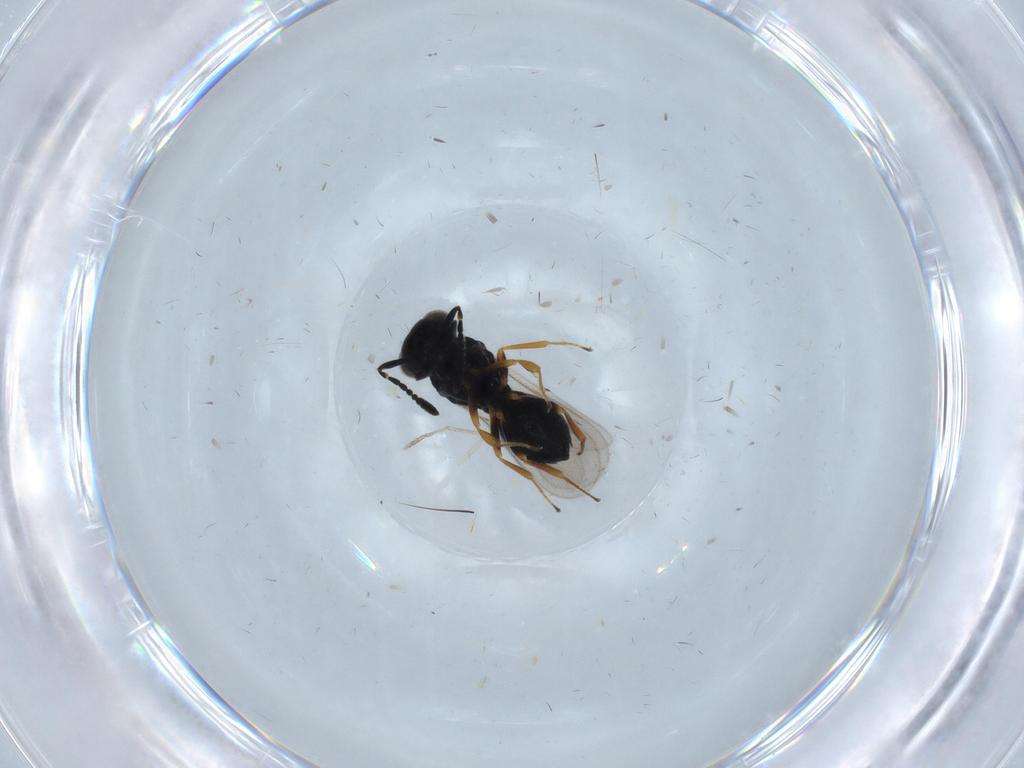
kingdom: Animalia
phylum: Arthropoda
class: Insecta
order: Hymenoptera
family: Scelionidae
